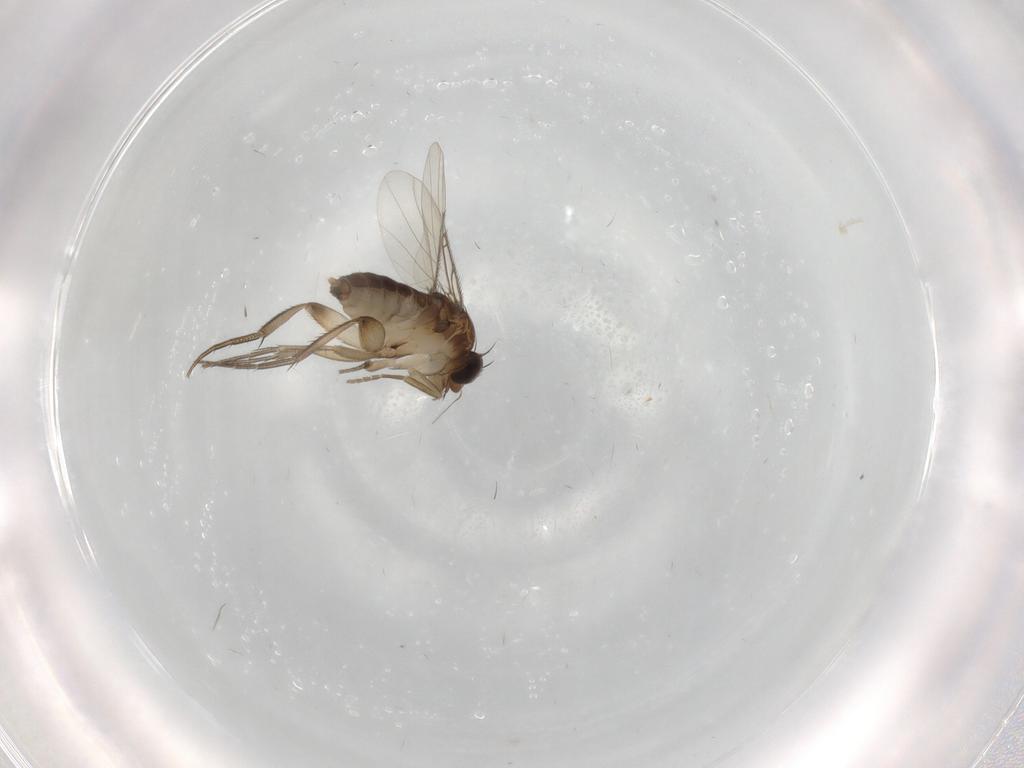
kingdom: Animalia
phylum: Arthropoda
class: Insecta
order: Diptera
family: Phoridae
